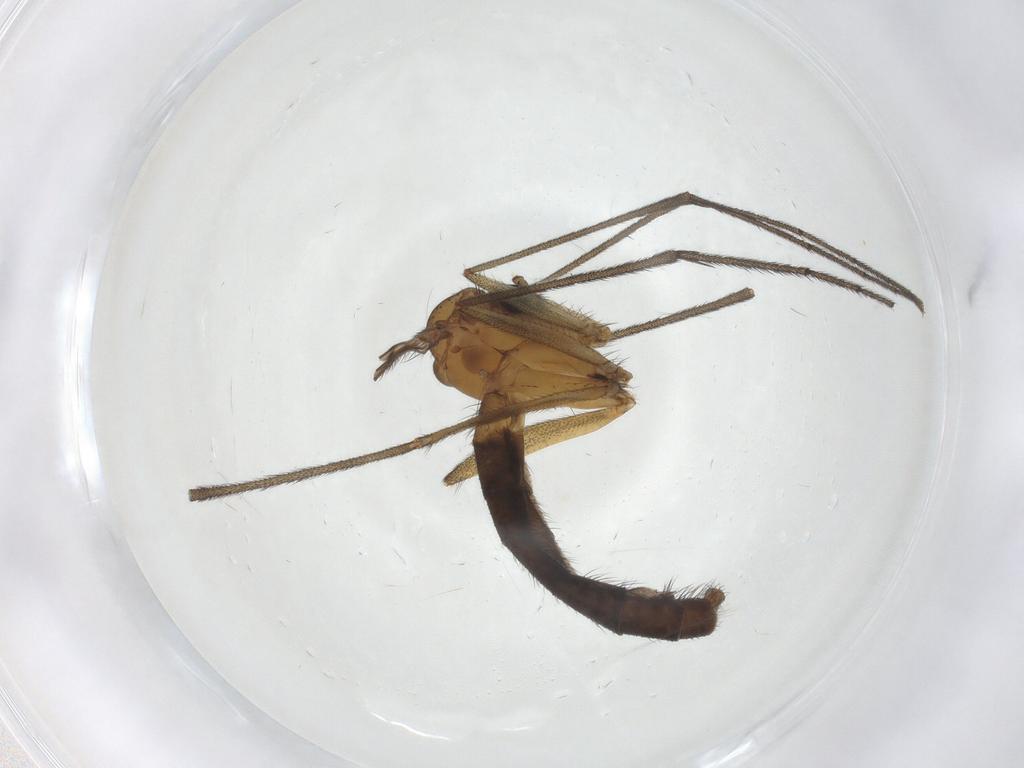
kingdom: Animalia
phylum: Arthropoda
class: Insecta
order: Diptera
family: Ditomyiidae
